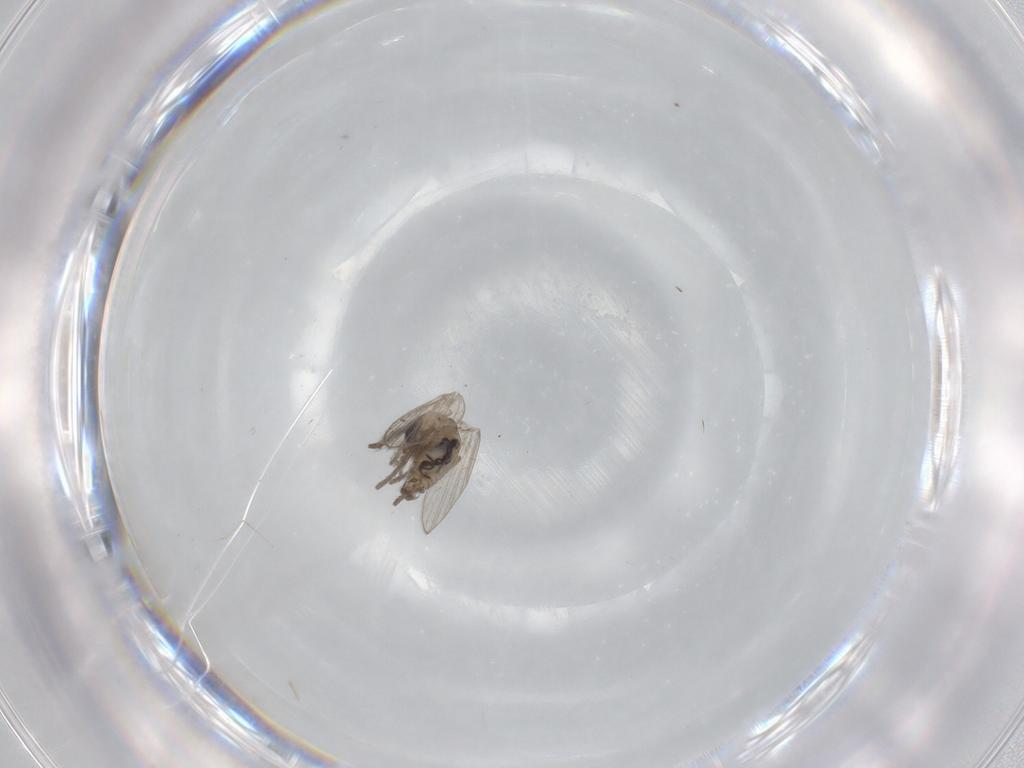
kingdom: Animalia
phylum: Arthropoda
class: Insecta
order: Diptera
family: Psychodidae
